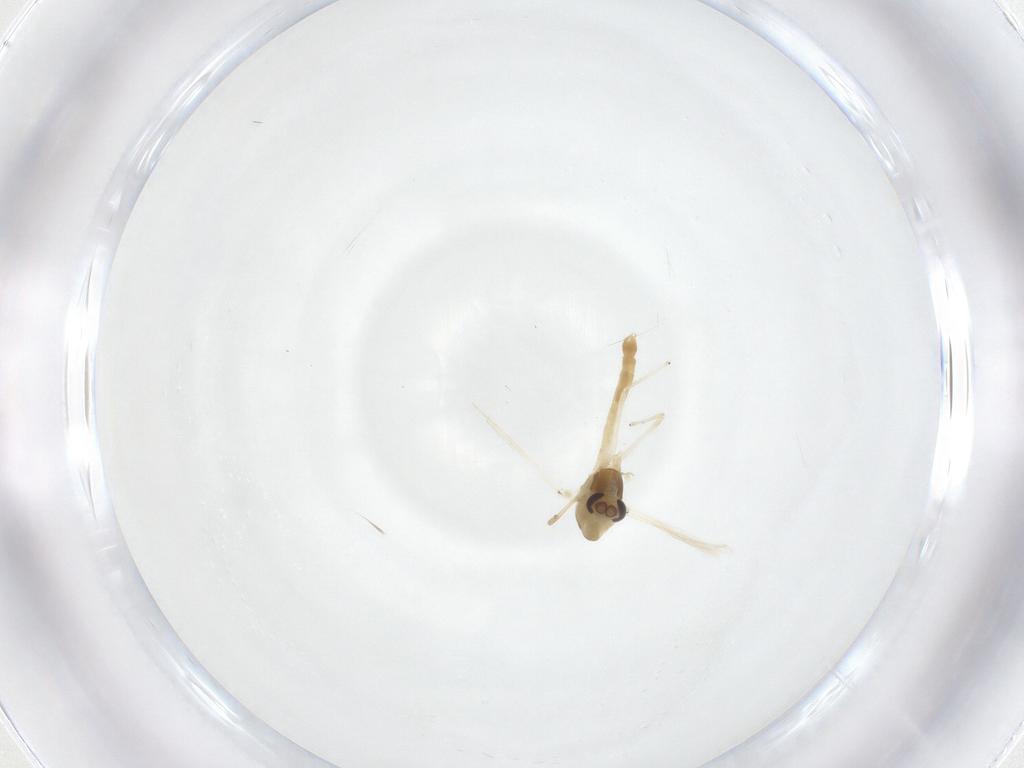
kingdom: Animalia
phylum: Arthropoda
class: Insecta
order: Diptera
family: Chironomidae
